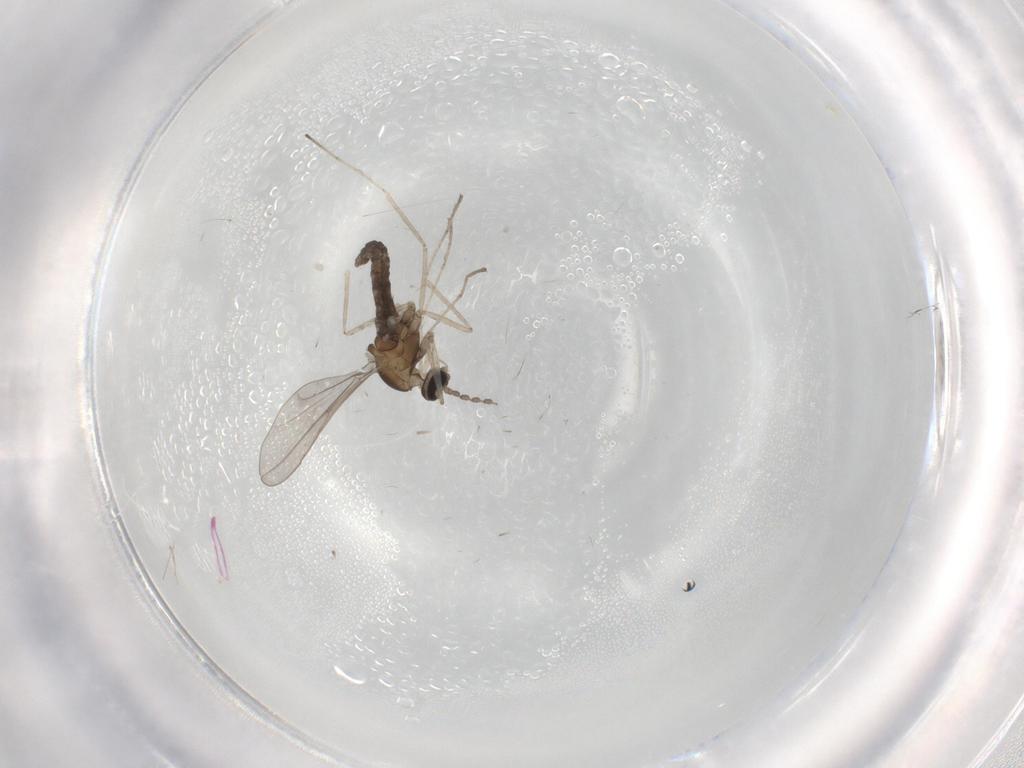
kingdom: Animalia
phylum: Arthropoda
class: Insecta
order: Diptera
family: Cecidomyiidae
